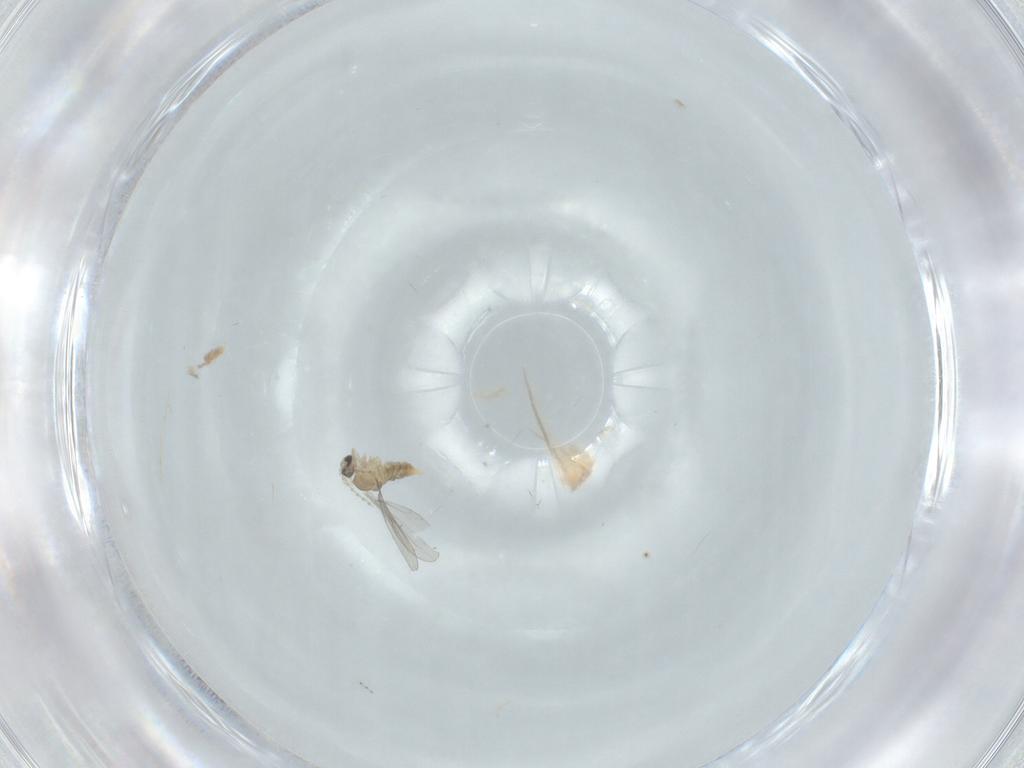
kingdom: Animalia
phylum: Arthropoda
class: Insecta
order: Diptera
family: Cecidomyiidae
